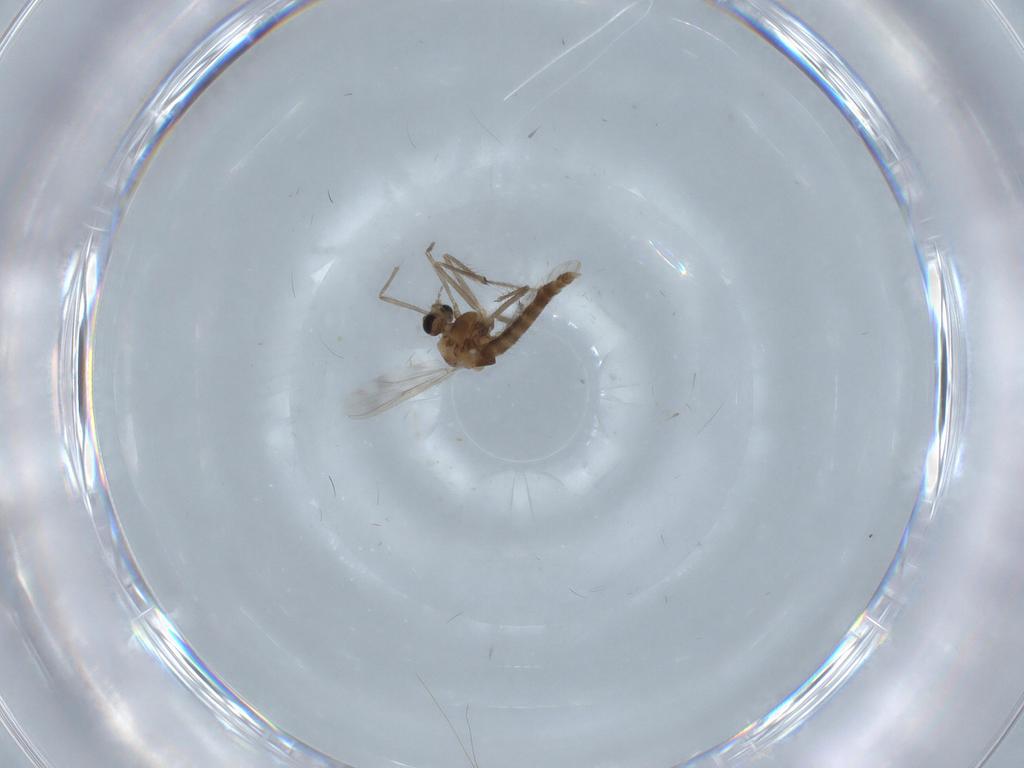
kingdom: Animalia
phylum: Arthropoda
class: Insecta
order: Diptera
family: Chironomidae
